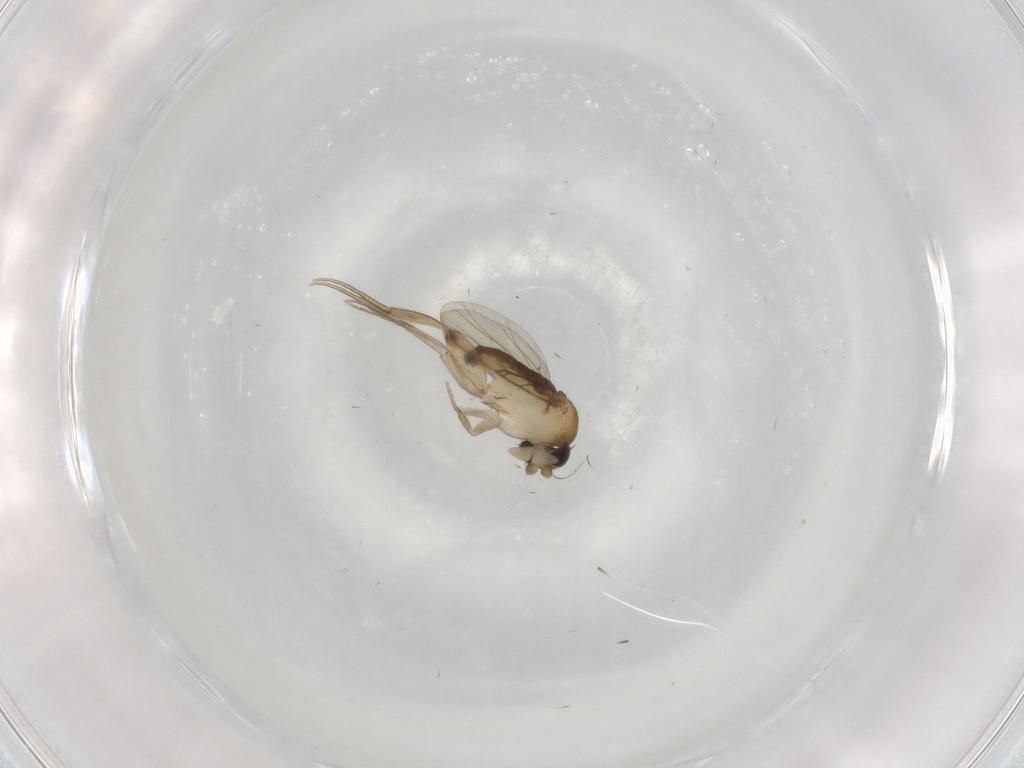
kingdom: Animalia
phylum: Arthropoda
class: Insecta
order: Diptera
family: Phoridae
